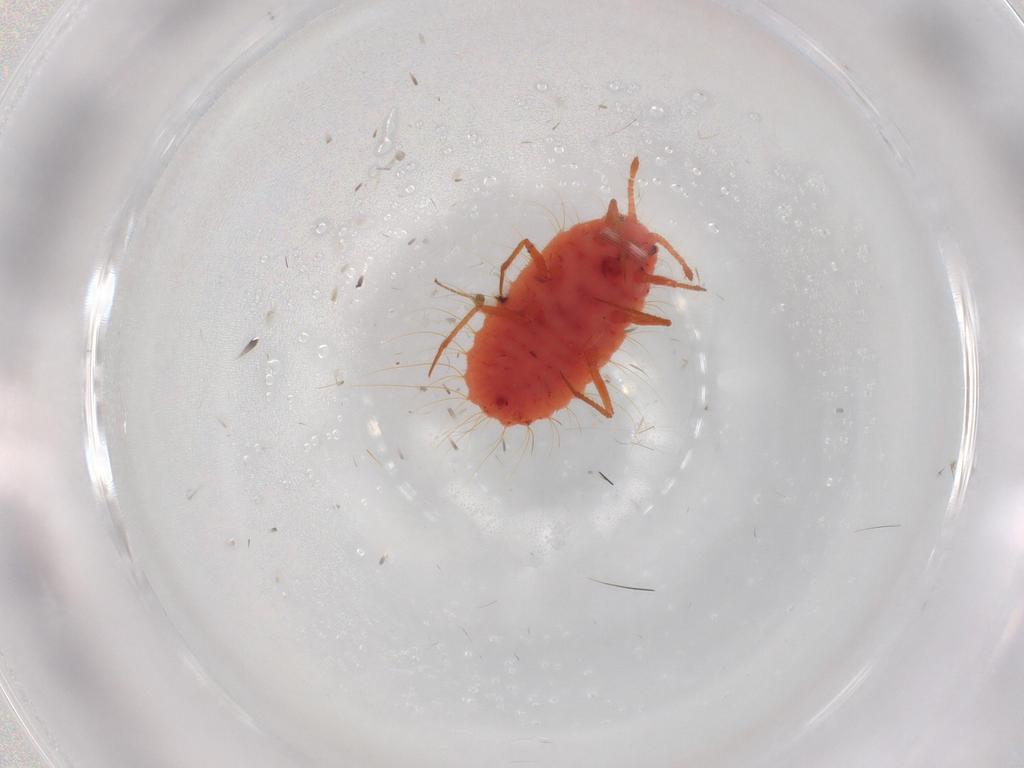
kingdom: Animalia
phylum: Arthropoda
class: Insecta
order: Hemiptera
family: Monophlebidae
